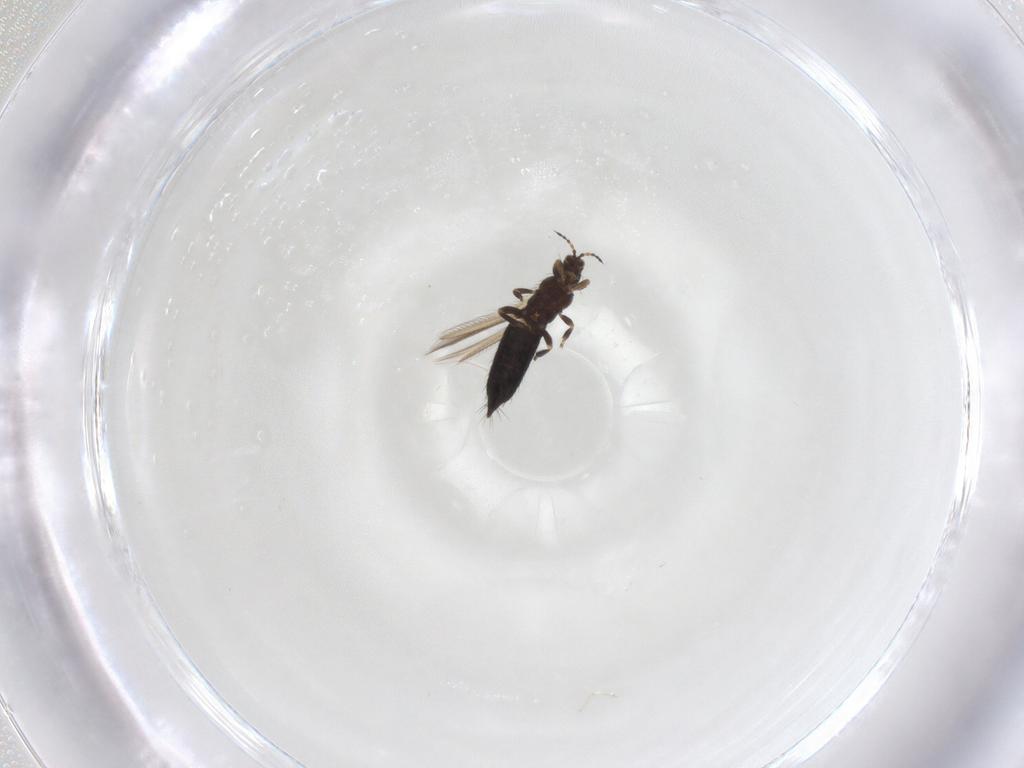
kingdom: Animalia
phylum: Arthropoda
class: Insecta
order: Thysanoptera
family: Thripidae
